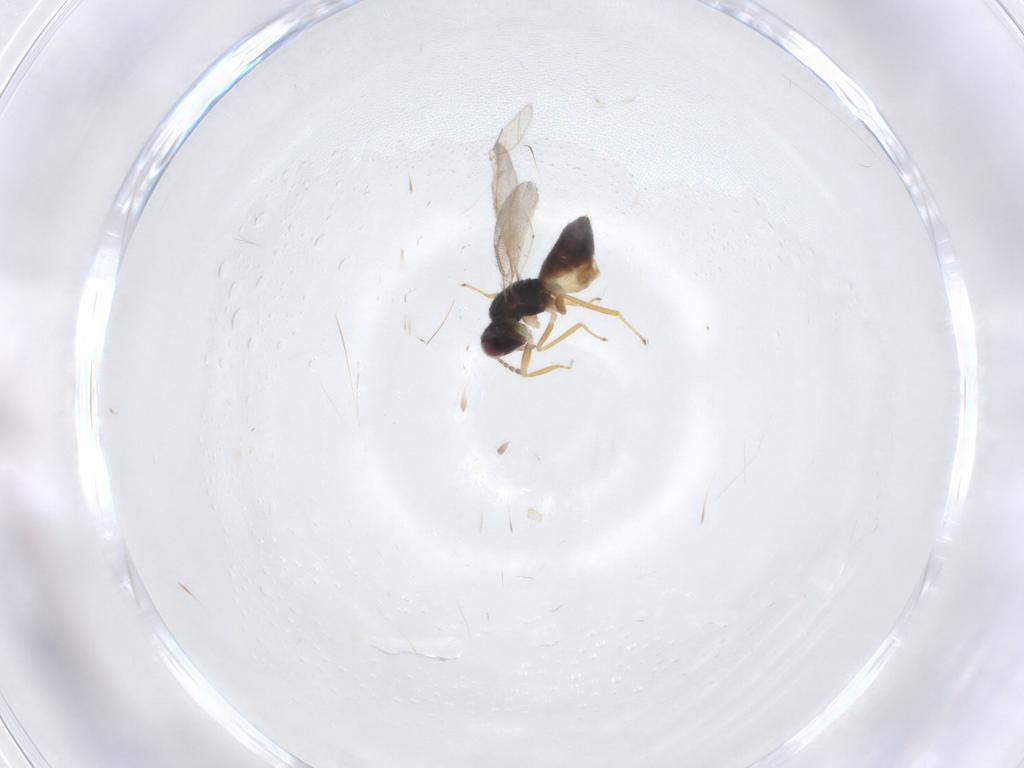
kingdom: Animalia
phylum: Arthropoda
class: Insecta
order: Hymenoptera
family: Eulophidae
